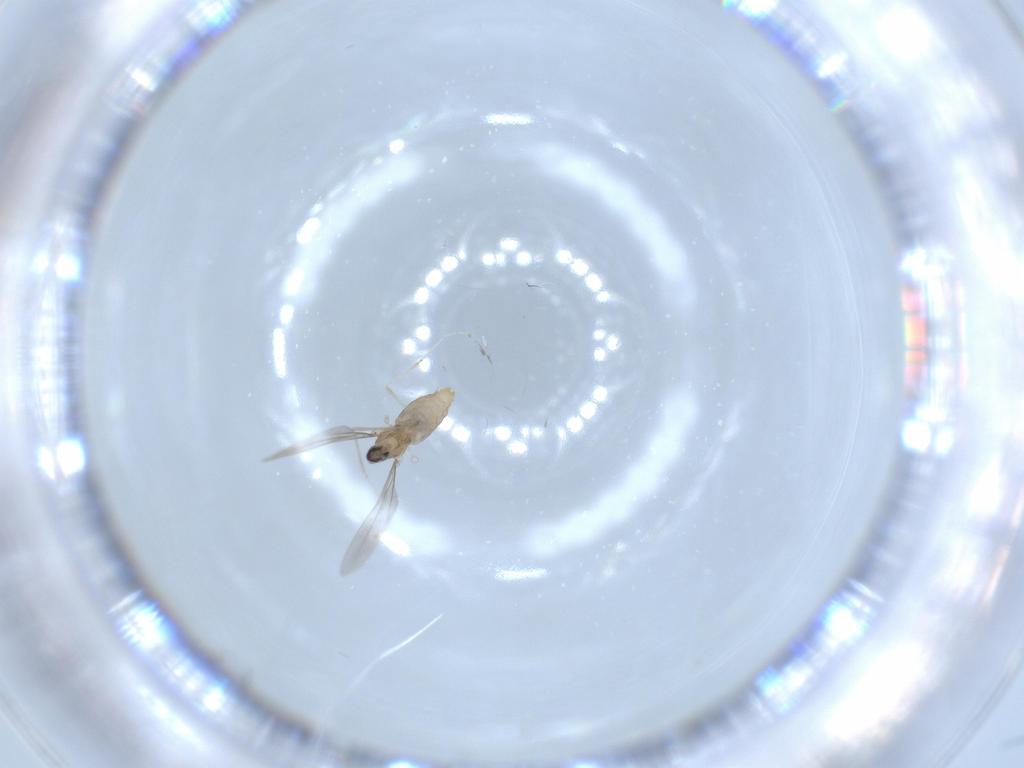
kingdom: Animalia
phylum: Arthropoda
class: Insecta
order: Diptera
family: Cecidomyiidae
